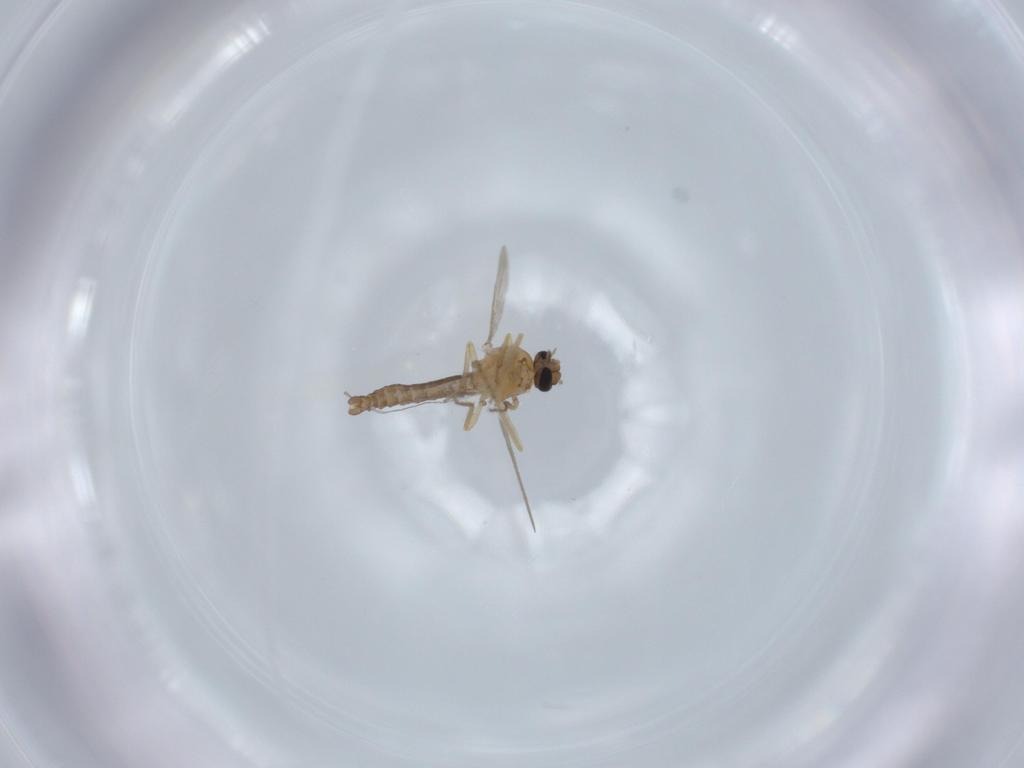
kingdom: Animalia
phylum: Arthropoda
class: Insecta
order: Diptera
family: Ceratopogonidae
